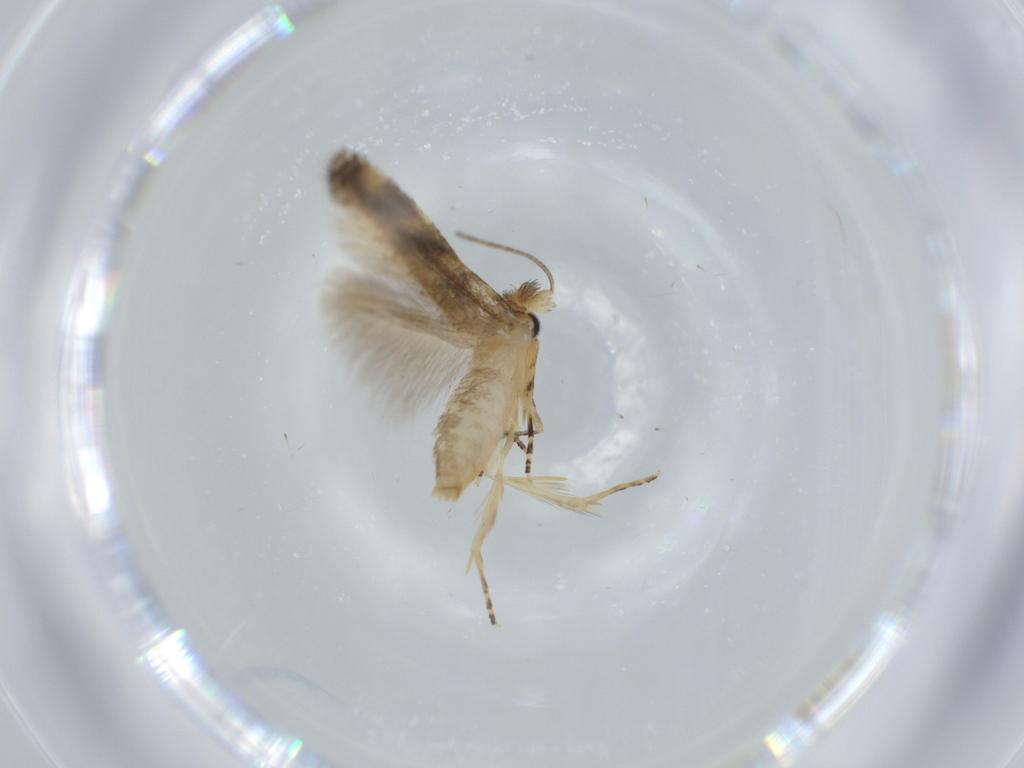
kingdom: Animalia
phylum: Arthropoda
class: Insecta
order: Lepidoptera
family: Bucculatricidae
